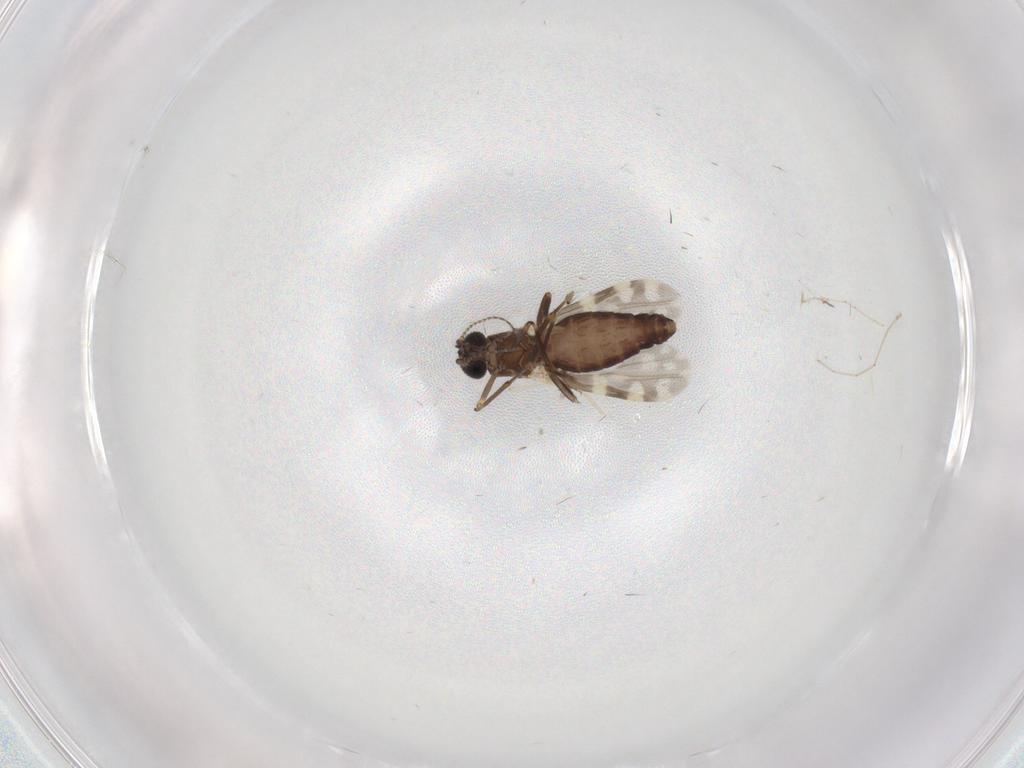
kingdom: Animalia
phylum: Arthropoda
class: Insecta
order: Diptera
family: Ceratopogonidae
